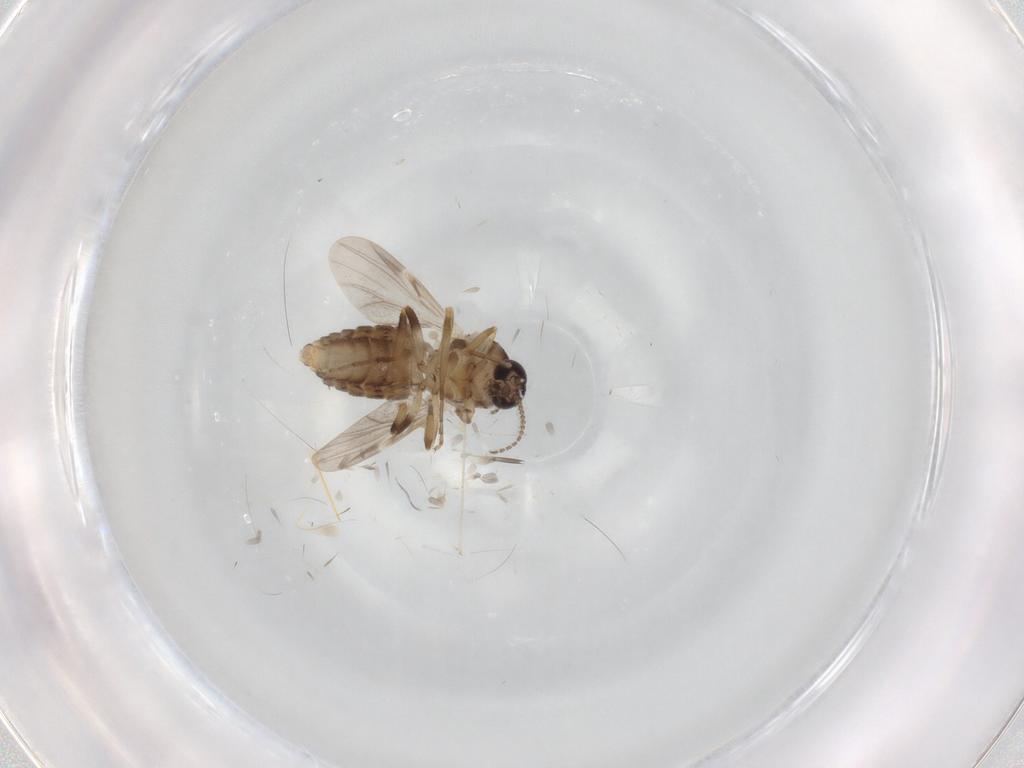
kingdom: Animalia
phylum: Arthropoda
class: Insecta
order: Diptera
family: Ceratopogonidae
